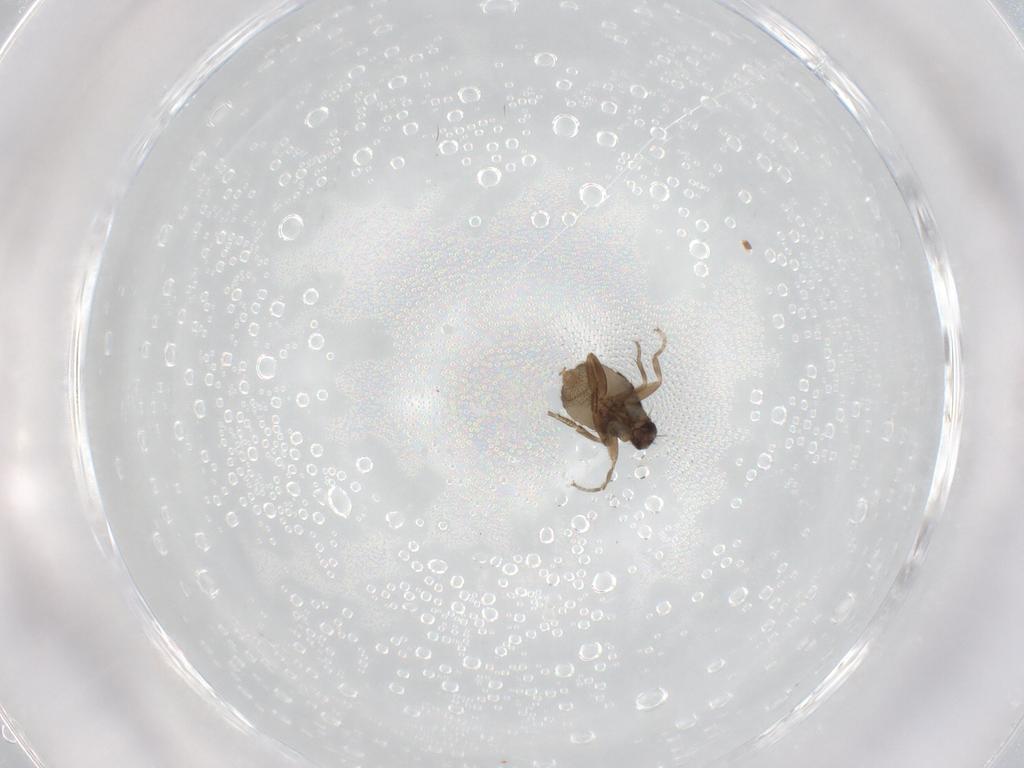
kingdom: Animalia
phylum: Arthropoda
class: Insecta
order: Diptera
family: Phoridae
